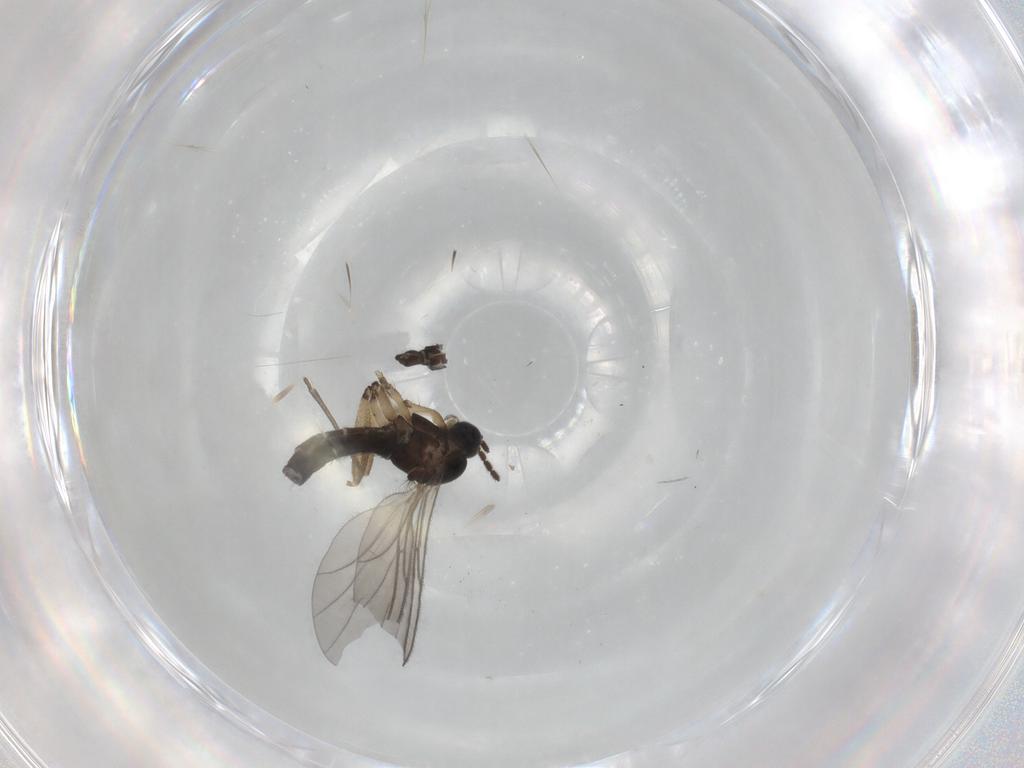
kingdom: Animalia
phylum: Arthropoda
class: Insecta
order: Diptera
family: Sciaridae
